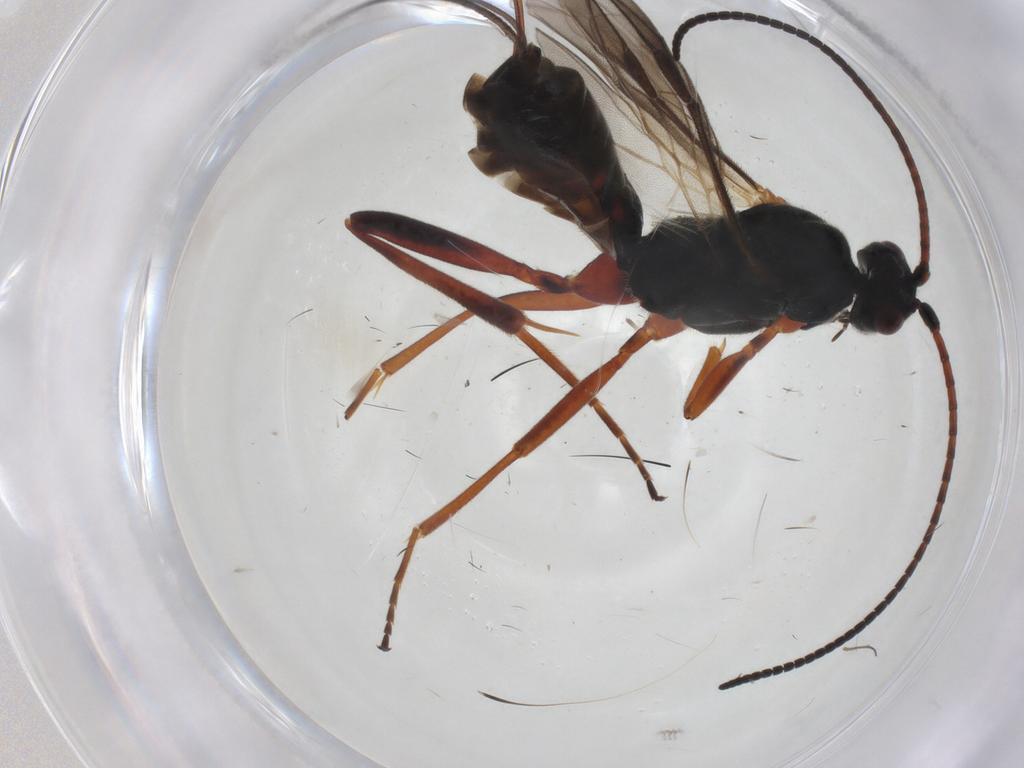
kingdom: Animalia
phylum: Arthropoda
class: Insecta
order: Hymenoptera
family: Braconidae
